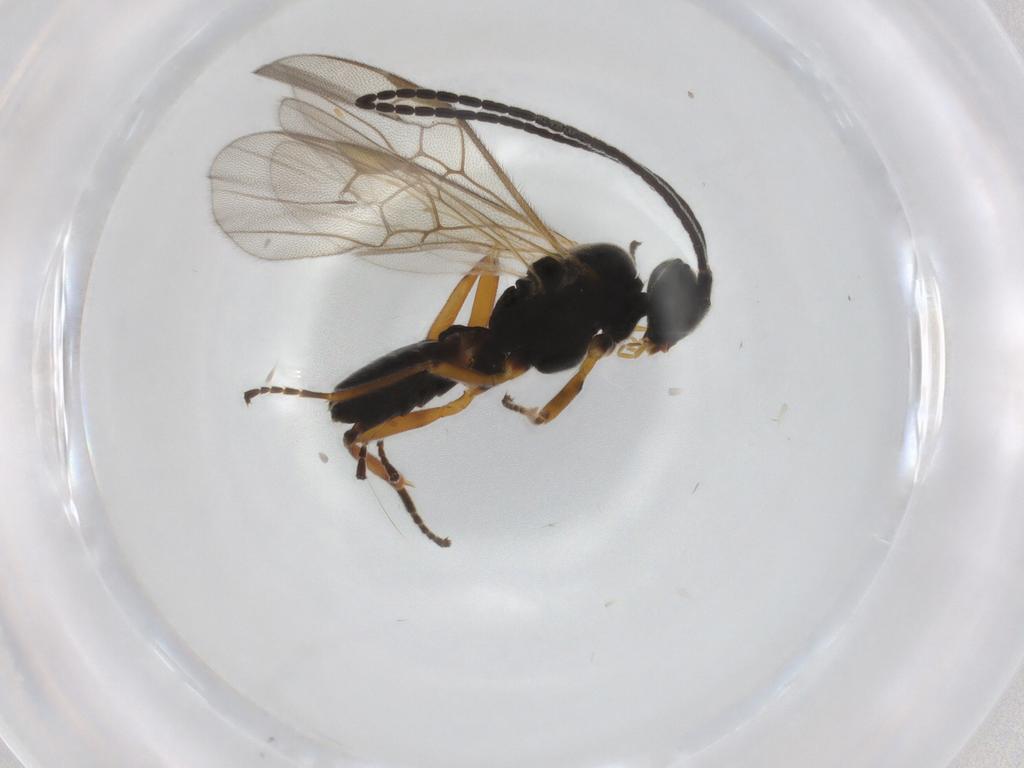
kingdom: Animalia
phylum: Arthropoda
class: Insecta
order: Hymenoptera
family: Braconidae
